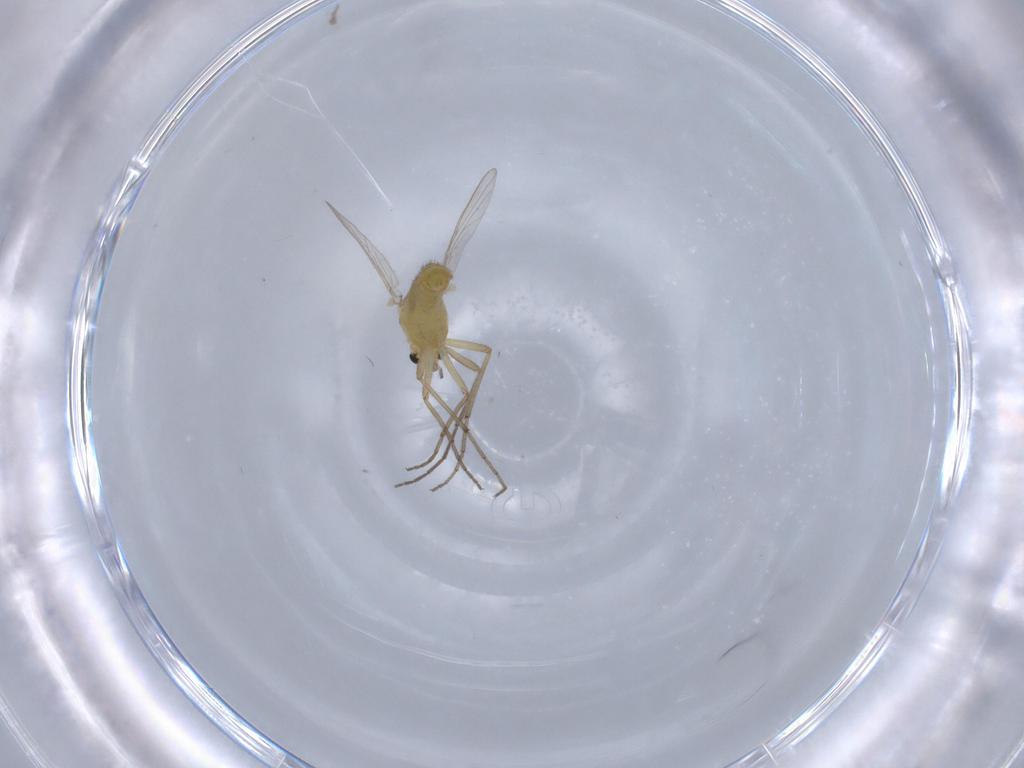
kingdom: Animalia
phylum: Arthropoda
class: Insecta
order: Diptera
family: Chironomidae
